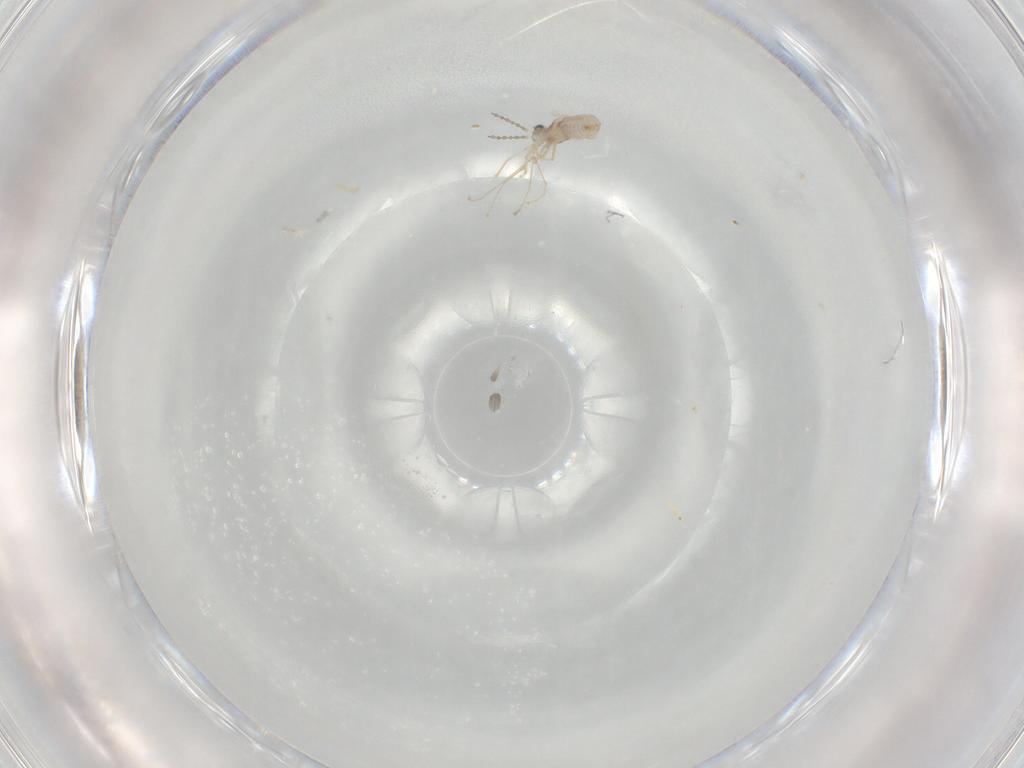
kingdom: Animalia
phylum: Arthropoda
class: Insecta
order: Diptera
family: Cecidomyiidae
